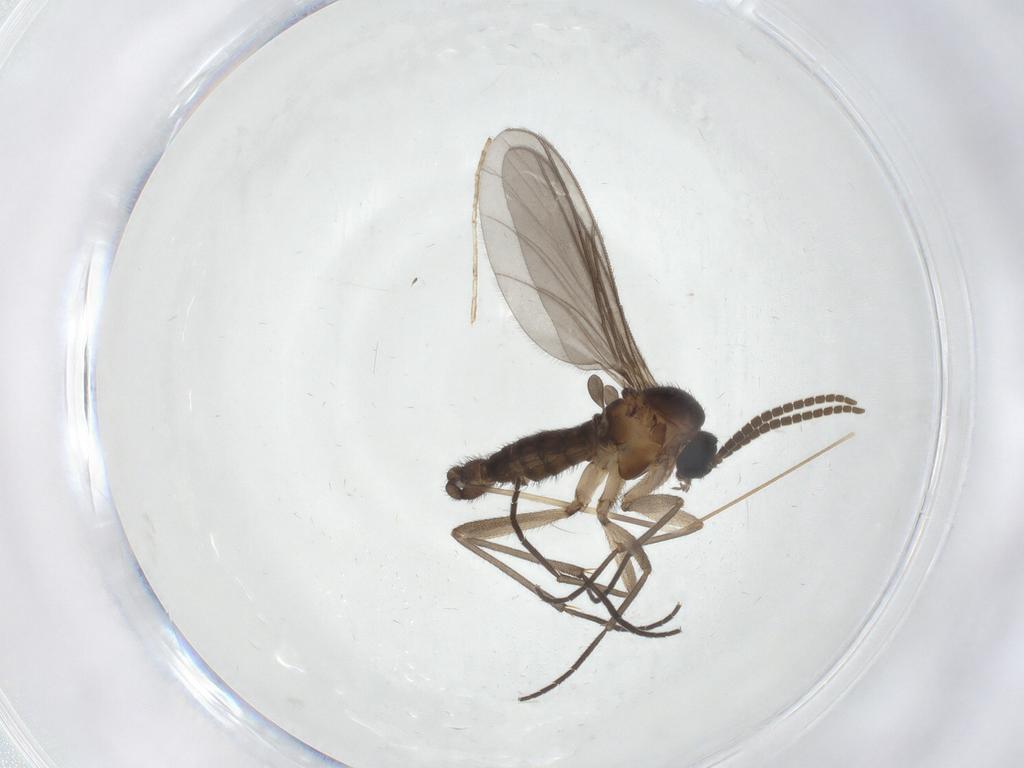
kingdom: Animalia
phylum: Arthropoda
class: Insecta
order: Diptera
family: Limoniidae
